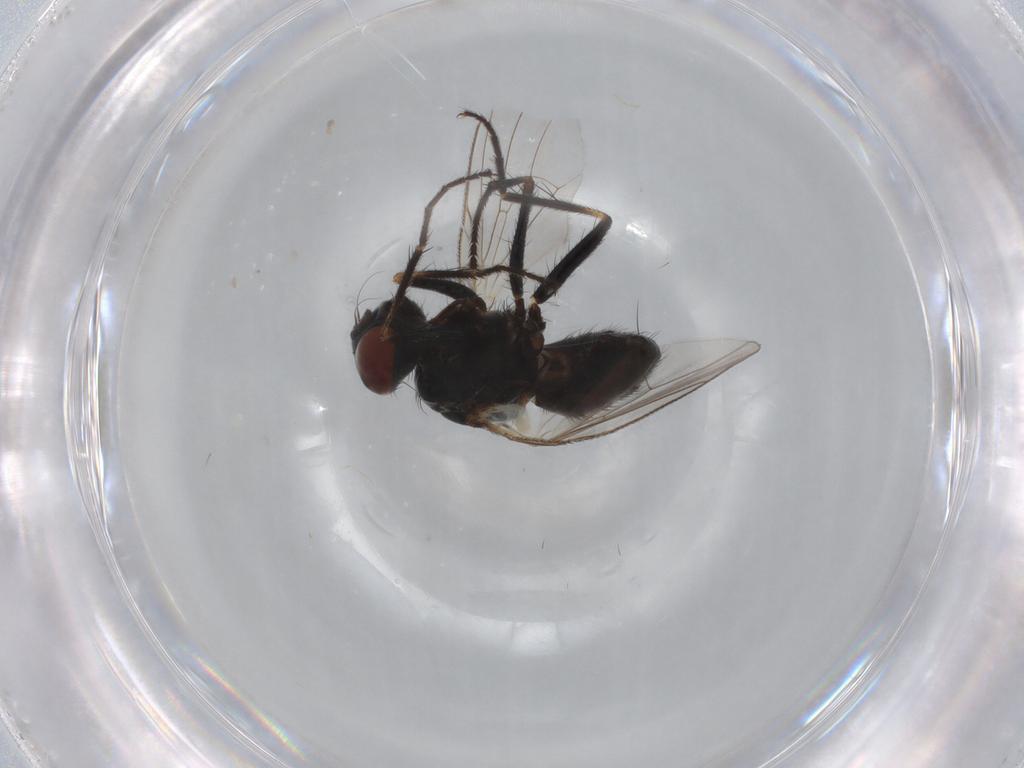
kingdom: Animalia
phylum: Arthropoda
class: Insecta
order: Diptera
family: Muscidae
